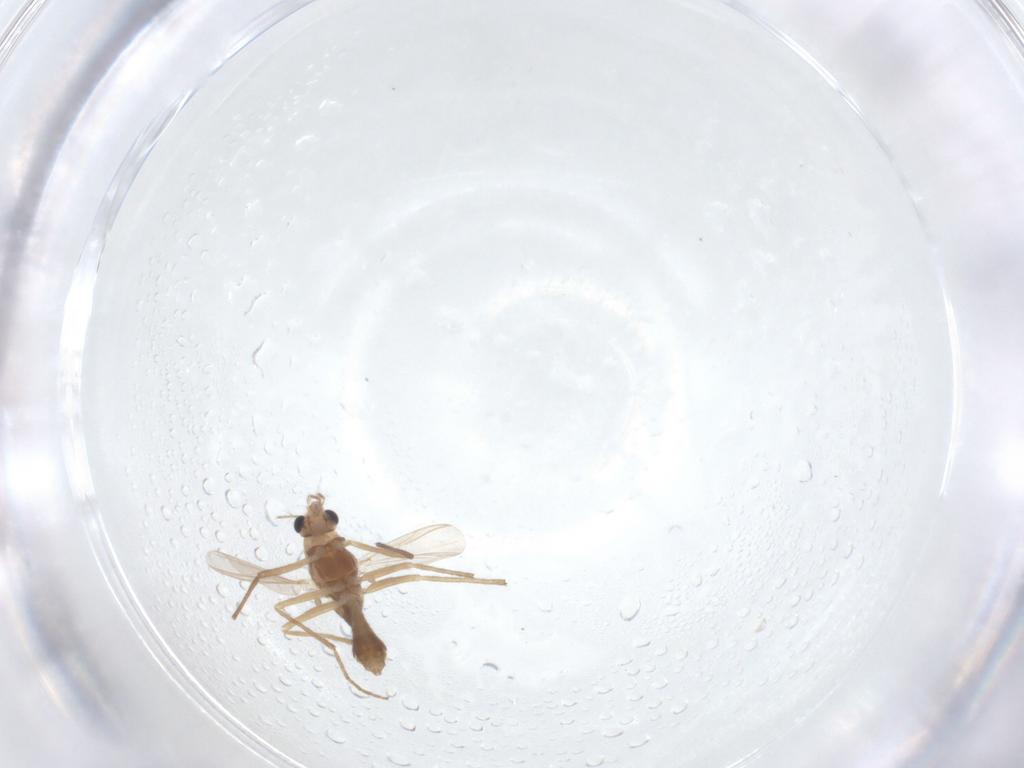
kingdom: Animalia
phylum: Arthropoda
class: Insecta
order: Diptera
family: Chironomidae
